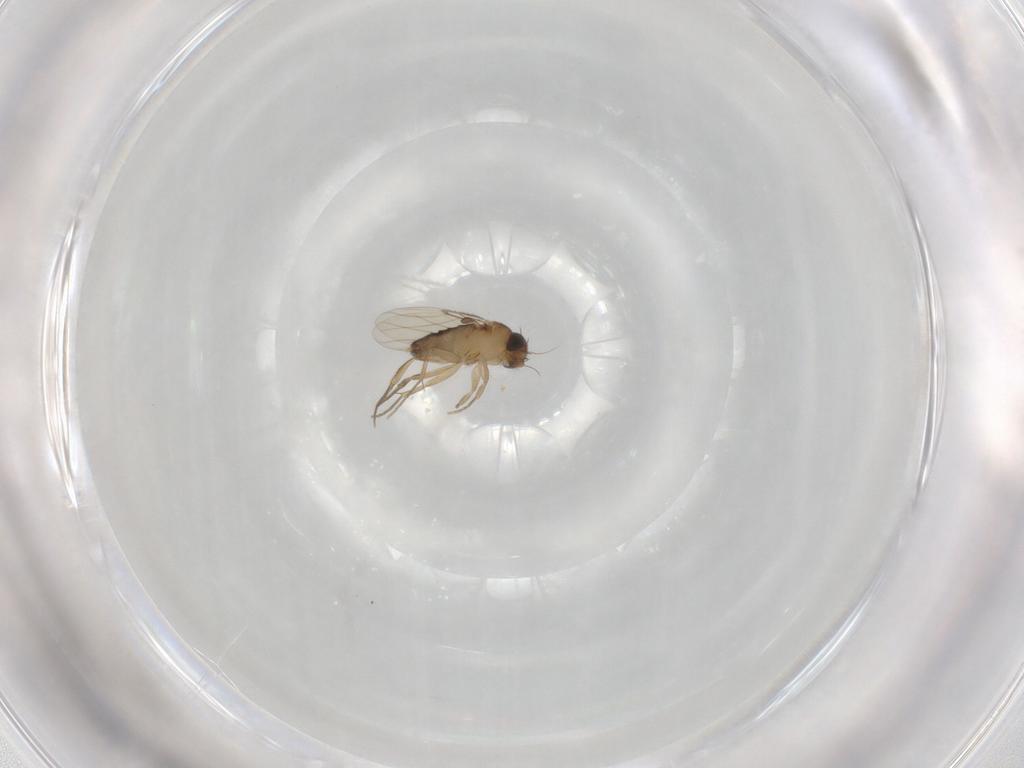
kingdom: Animalia
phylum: Arthropoda
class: Insecta
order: Diptera
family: Phoridae
